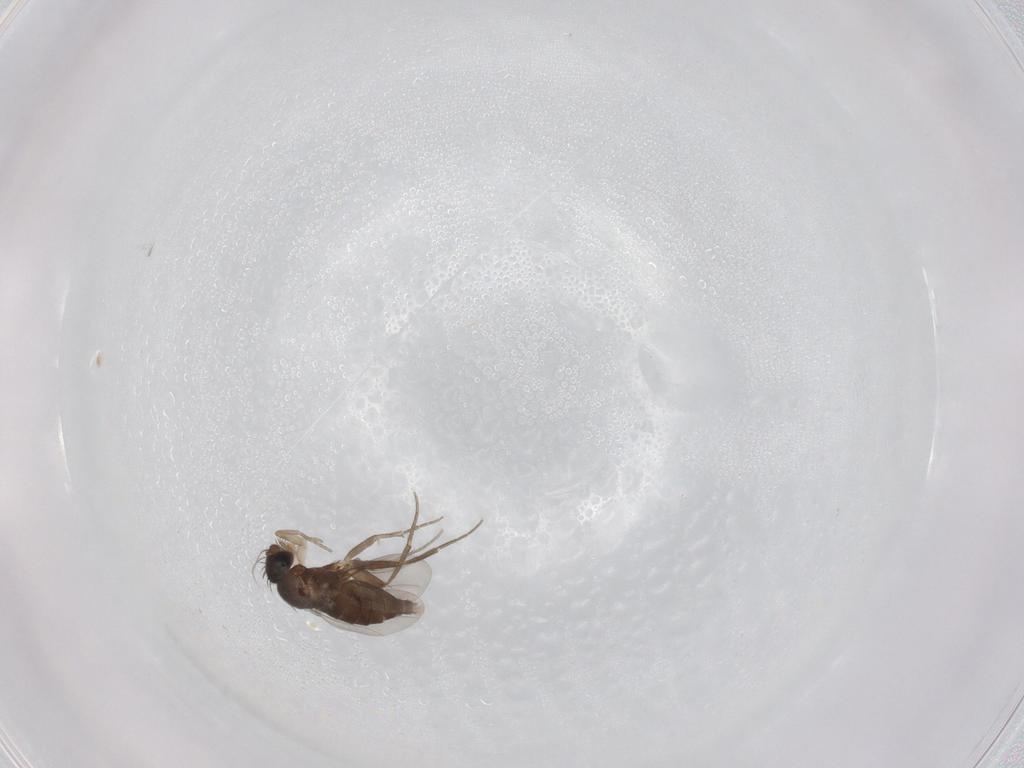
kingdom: Animalia
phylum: Arthropoda
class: Insecta
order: Diptera
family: Phoridae
